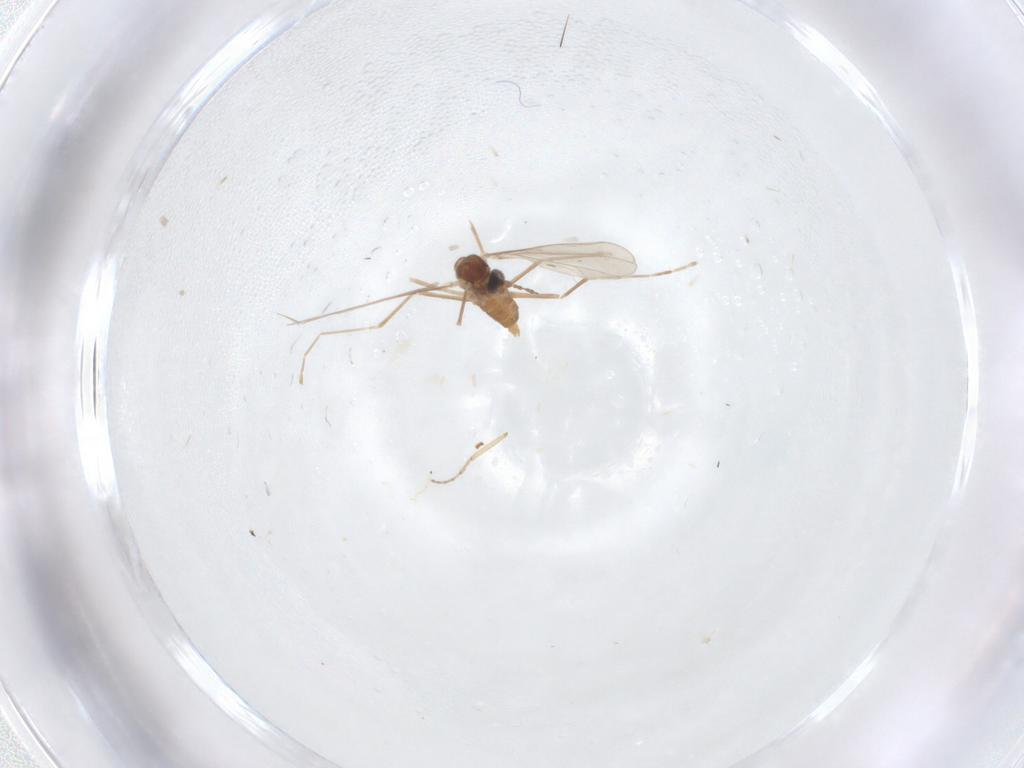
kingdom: Animalia
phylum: Arthropoda
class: Insecta
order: Diptera
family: Cecidomyiidae
